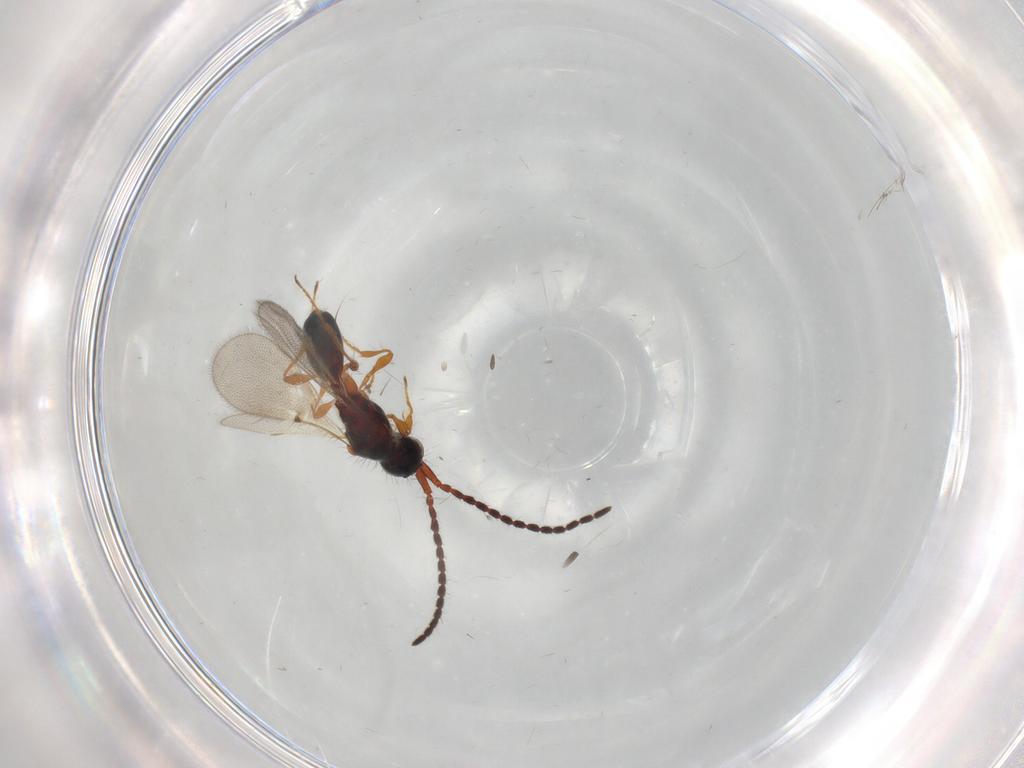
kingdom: Animalia
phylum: Arthropoda
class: Insecta
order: Hymenoptera
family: Diapriidae
